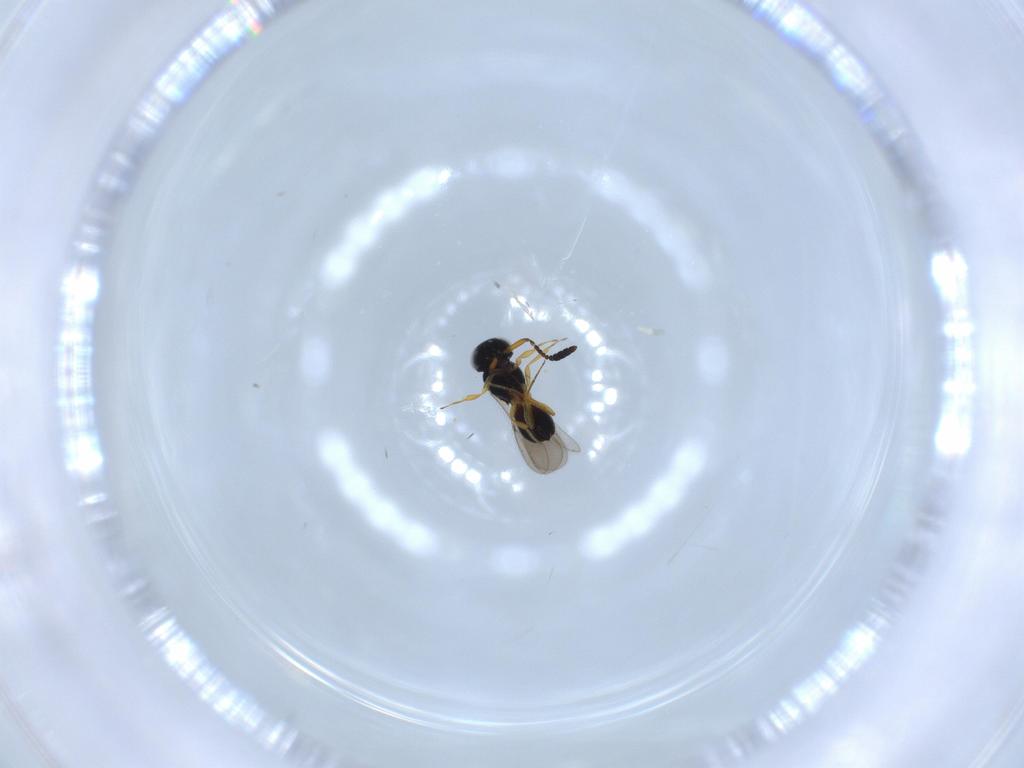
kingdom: Animalia
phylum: Arthropoda
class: Insecta
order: Hymenoptera
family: Scelionidae
